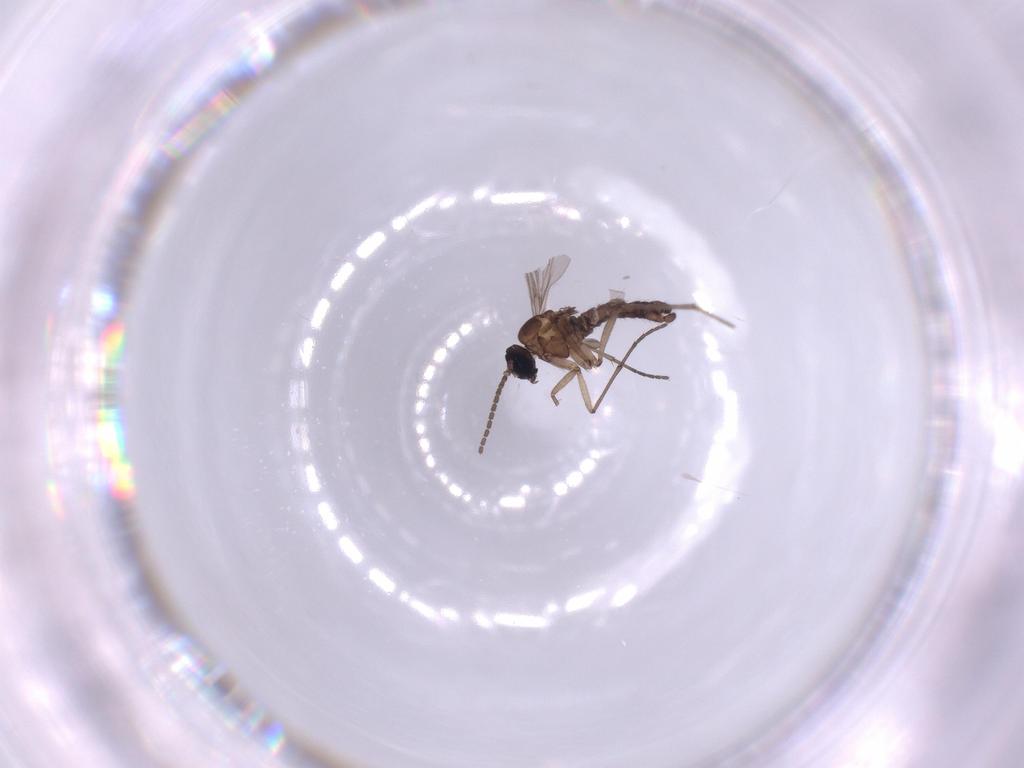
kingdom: Animalia
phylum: Arthropoda
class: Insecta
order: Diptera
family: Sciaridae
